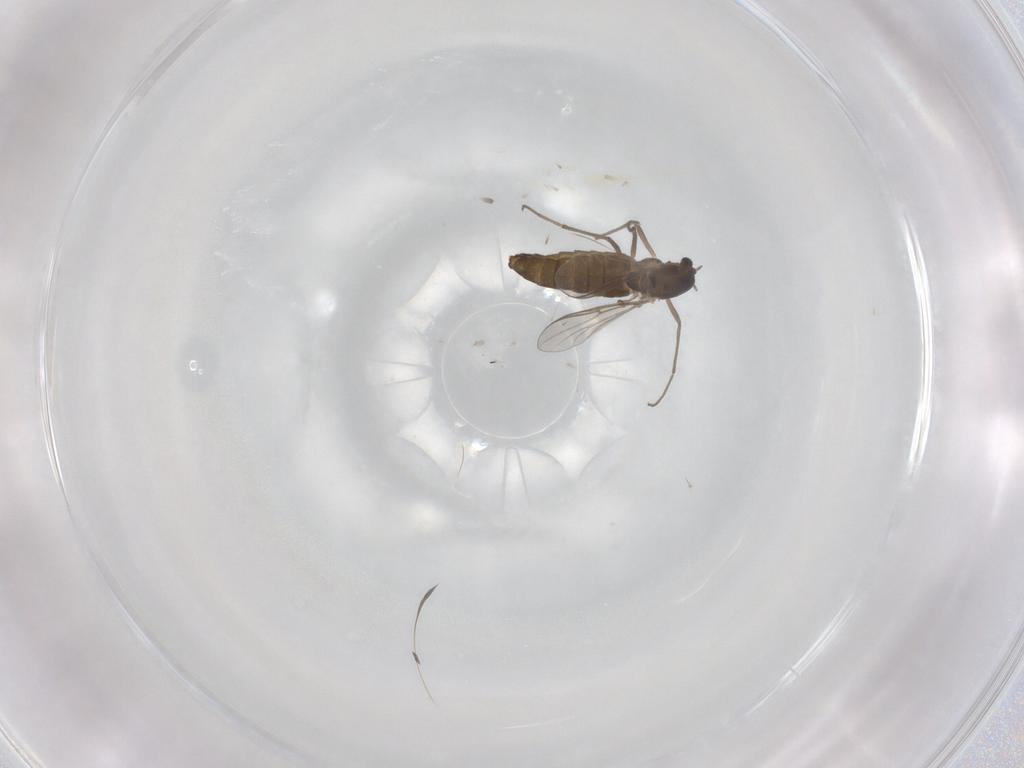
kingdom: Animalia
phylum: Arthropoda
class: Insecta
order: Diptera
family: Chironomidae
